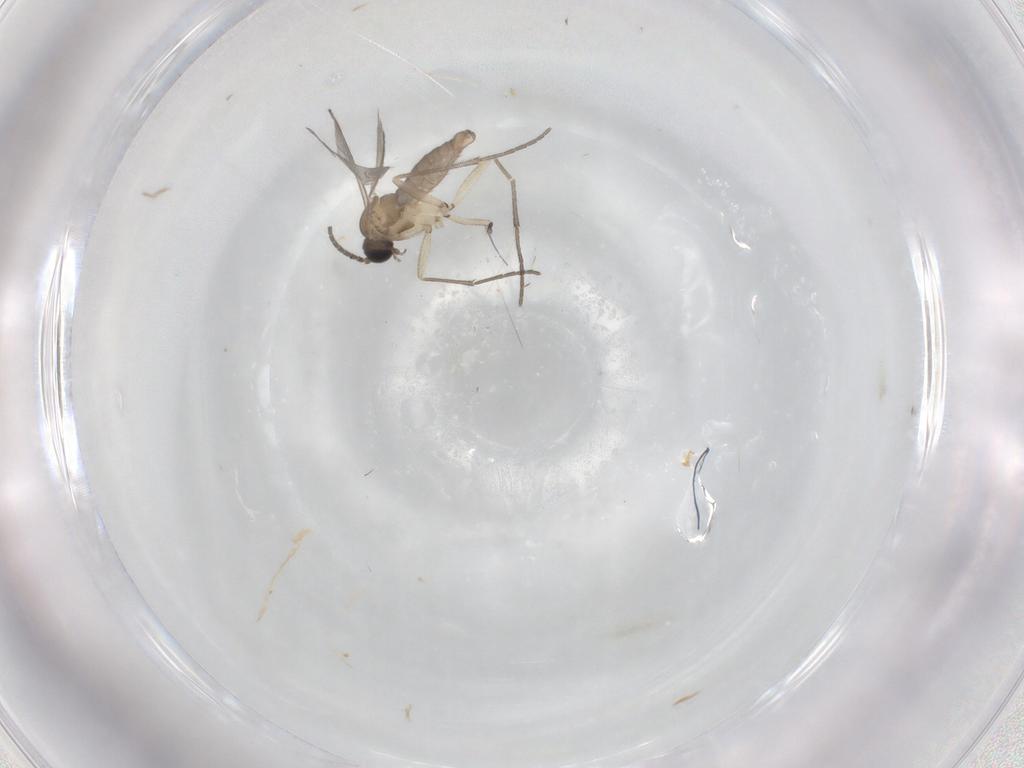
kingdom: Animalia
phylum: Arthropoda
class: Insecta
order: Diptera
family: Sciaridae
